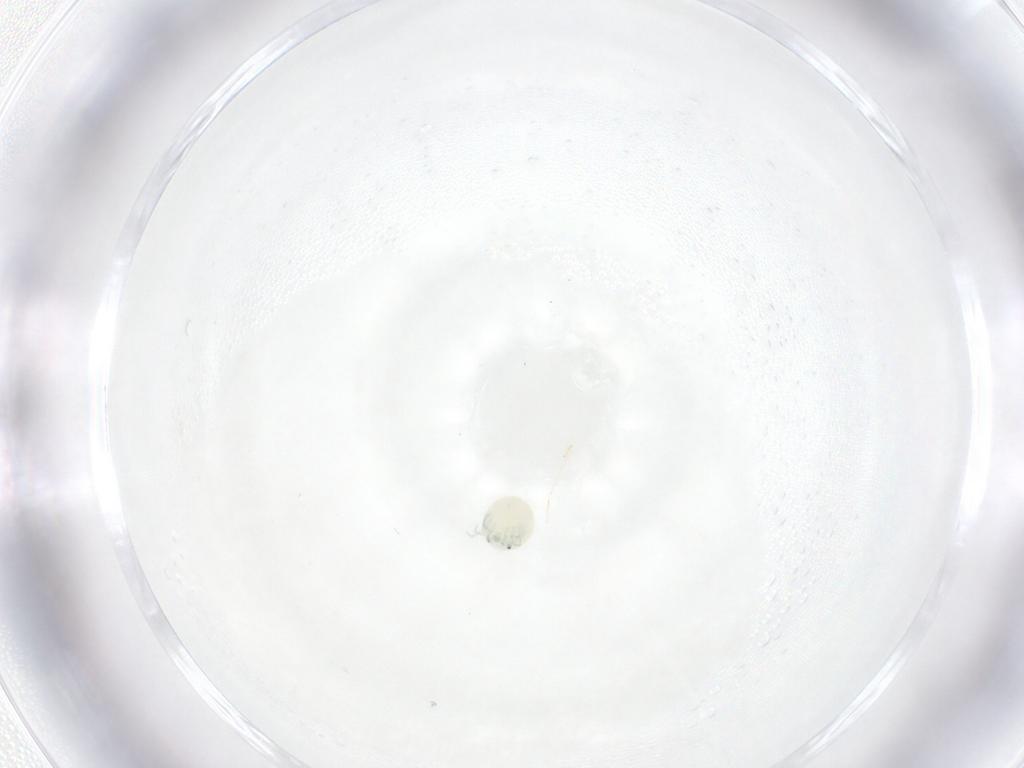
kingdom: Animalia
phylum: Arthropoda
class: Arachnida
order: Trombidiformes
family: Arrenuridae
